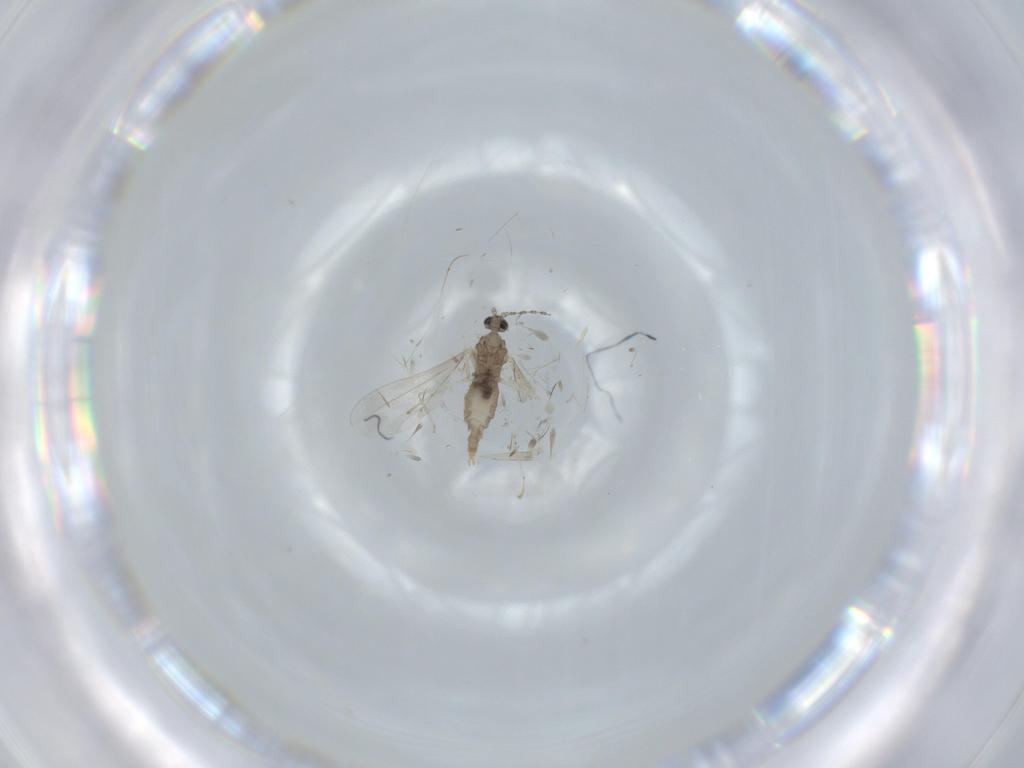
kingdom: Animalia
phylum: Arthropoda
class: Insecta
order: Diptera
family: Cecidomyiidae
